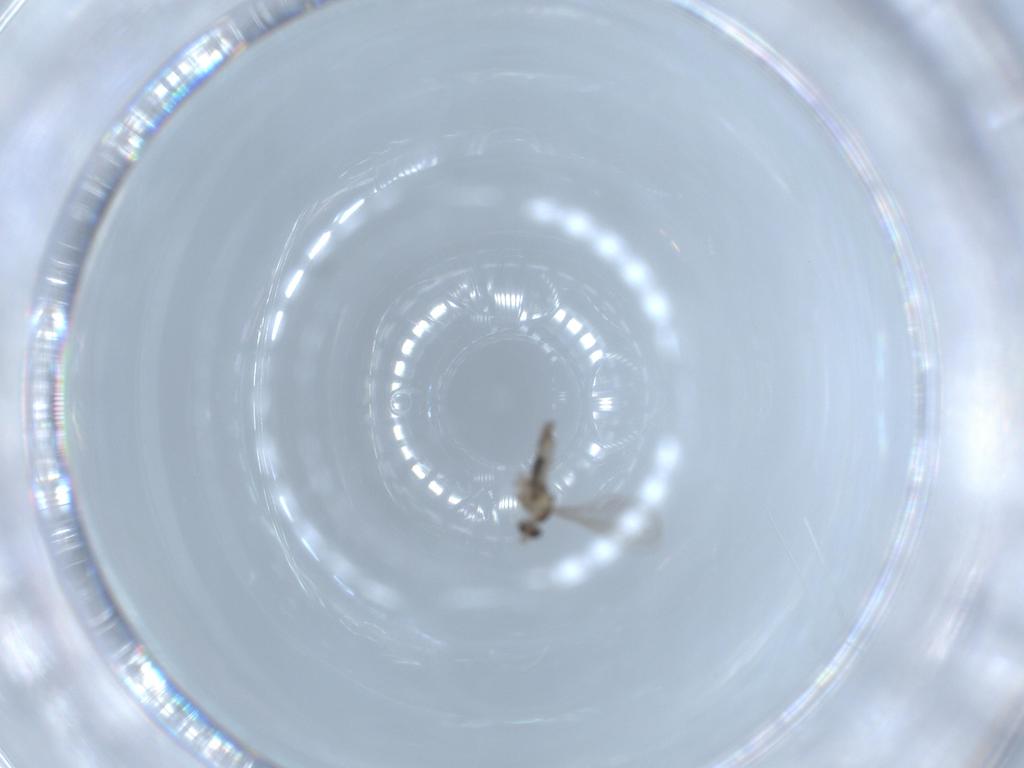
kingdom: Animalia
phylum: Arthropoda
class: Insecta
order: Diptera
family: Cecidomyiidae
